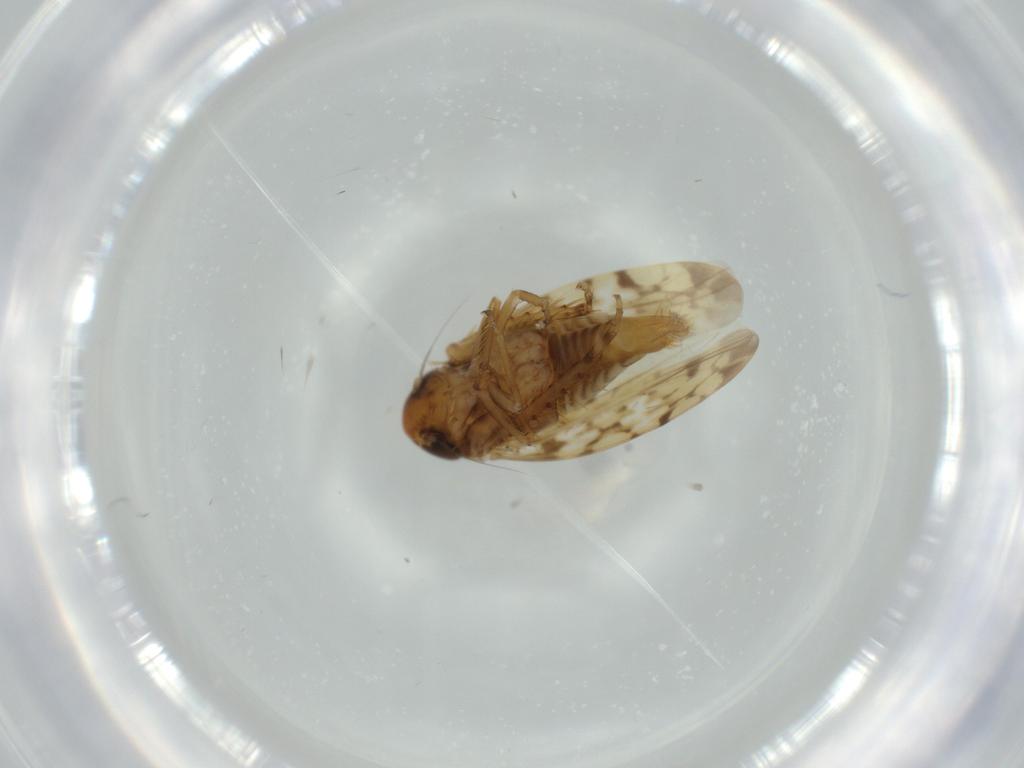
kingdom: Animalia
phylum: Arthropoda
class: Insecta
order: Hemiptera
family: Cicadellidae
